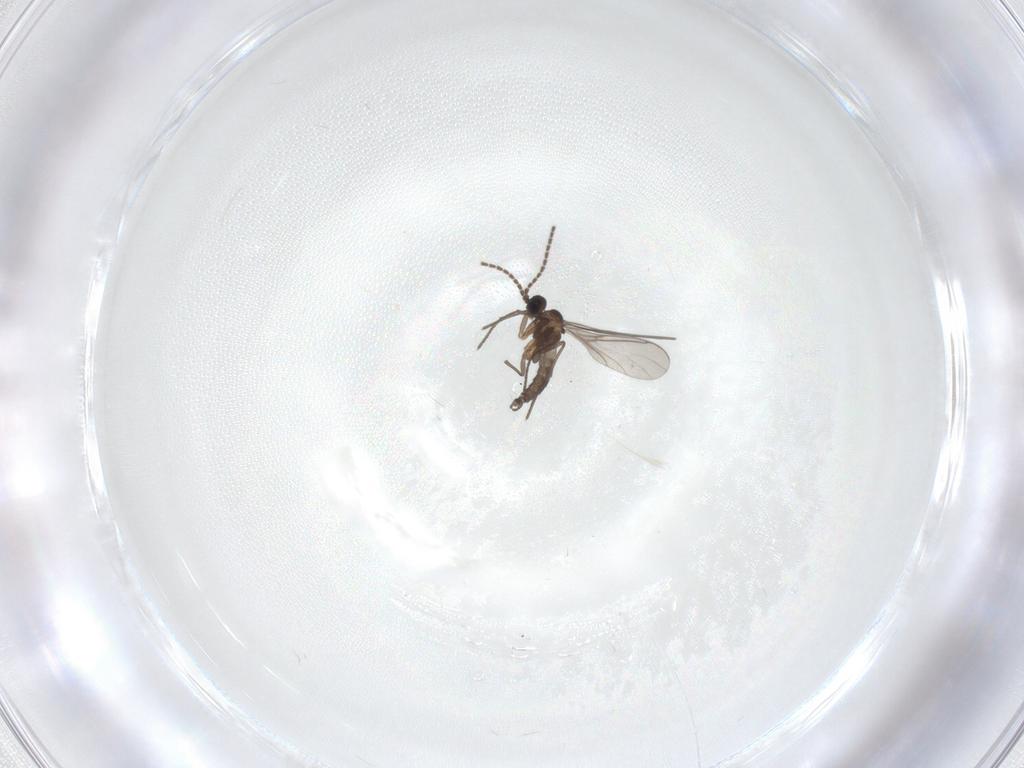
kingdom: Animalia
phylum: Arthropoda
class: Insecta
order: Diptera
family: Sciaridae
